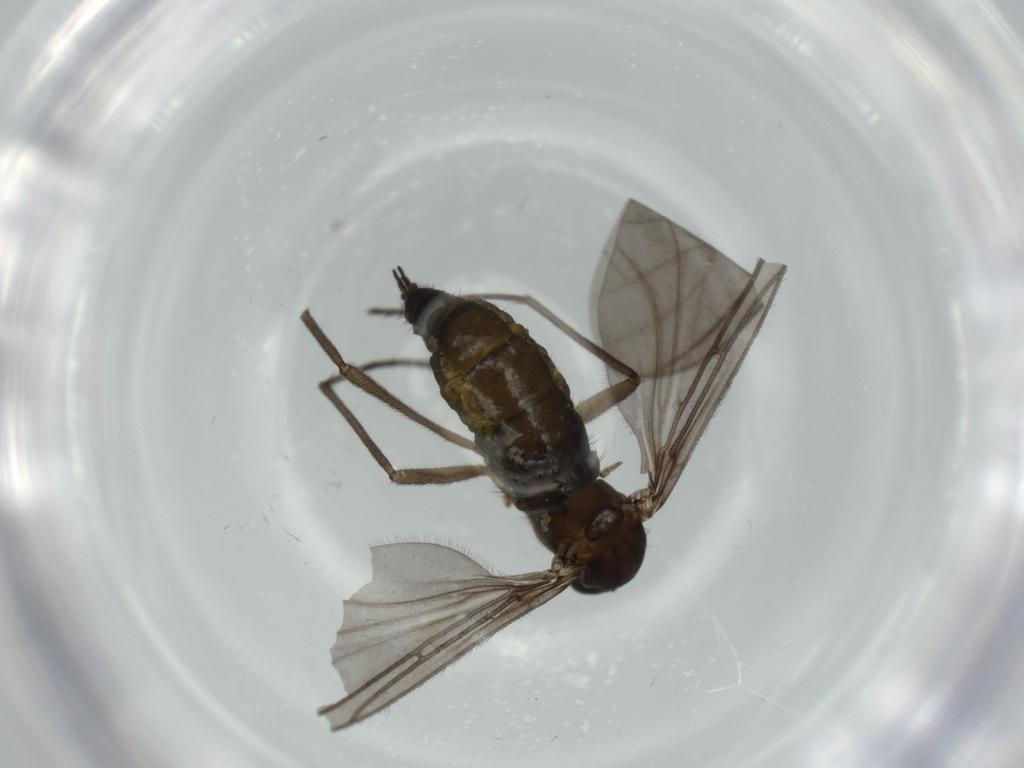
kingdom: Animalia
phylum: Arthropoda
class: Insecta
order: Diptera
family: Sciaridae
